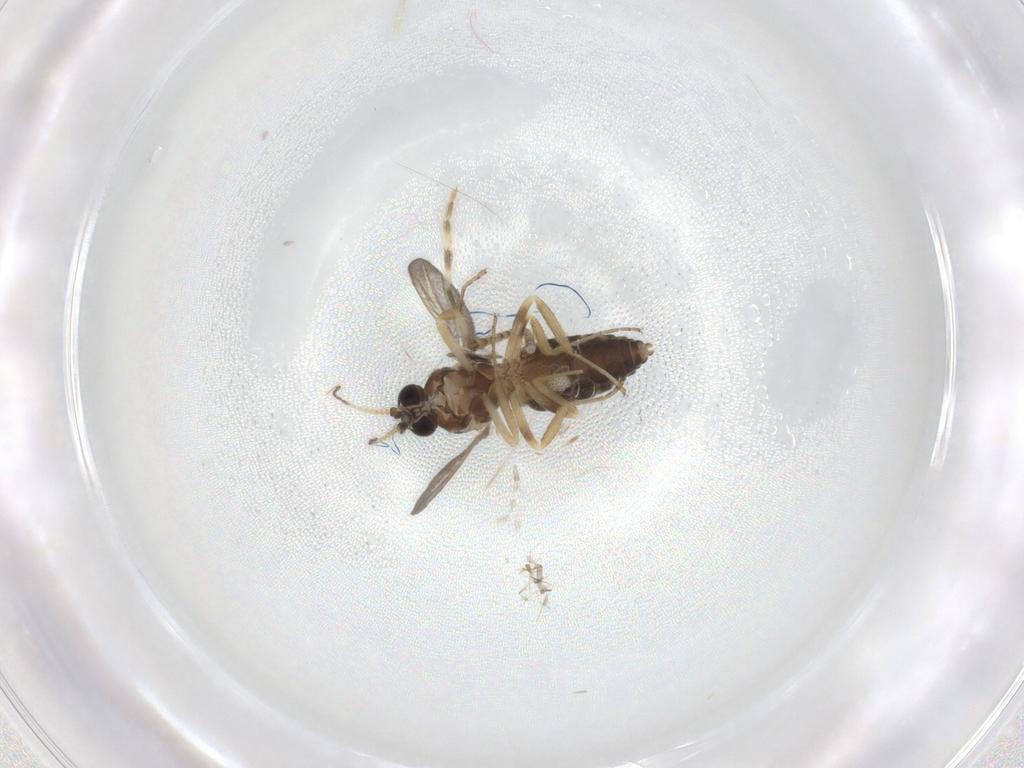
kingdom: Animalia
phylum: Arthropoda
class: Insecta
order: Diptera
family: Ceratopogonidae
